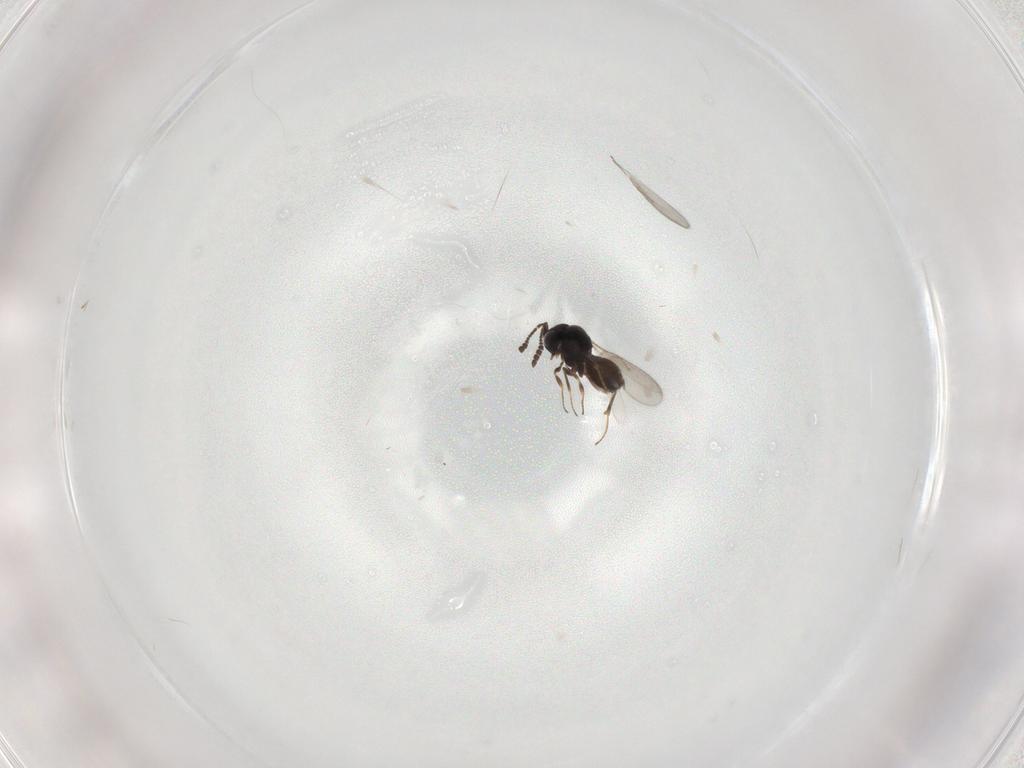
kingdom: Animalia
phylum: Arthropoda
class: Insecta
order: Hymenoptera
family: Scelionidae
